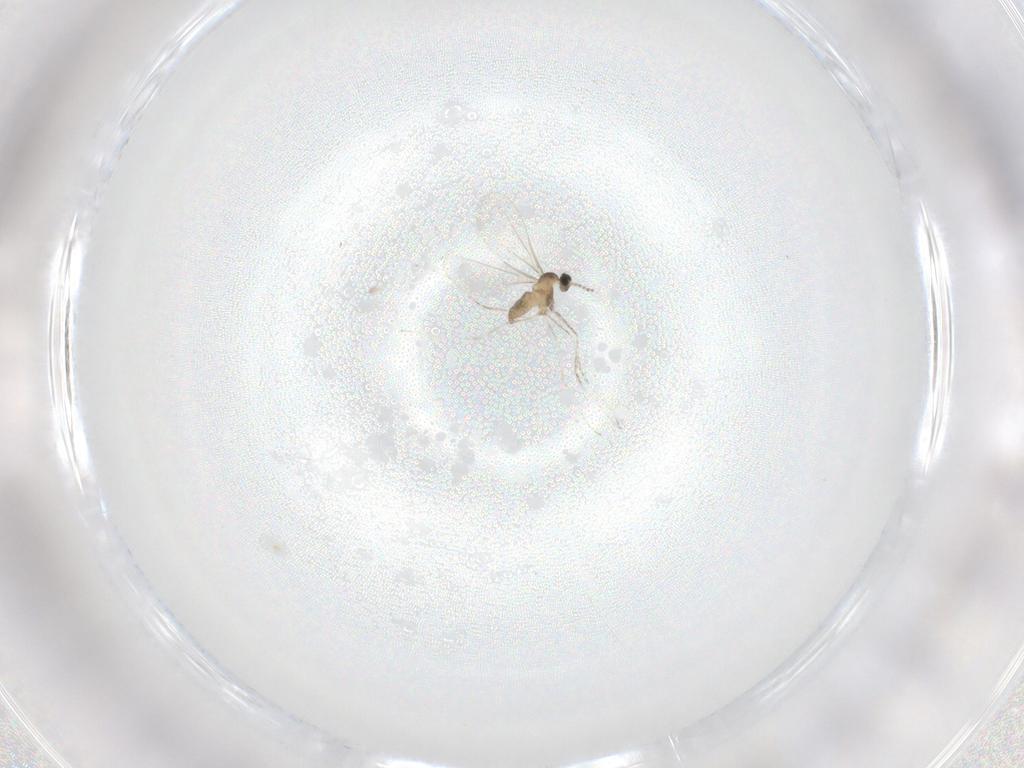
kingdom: Animalia
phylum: Arthropoda
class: Insecta
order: Diptera
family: Cecidomyiidae
